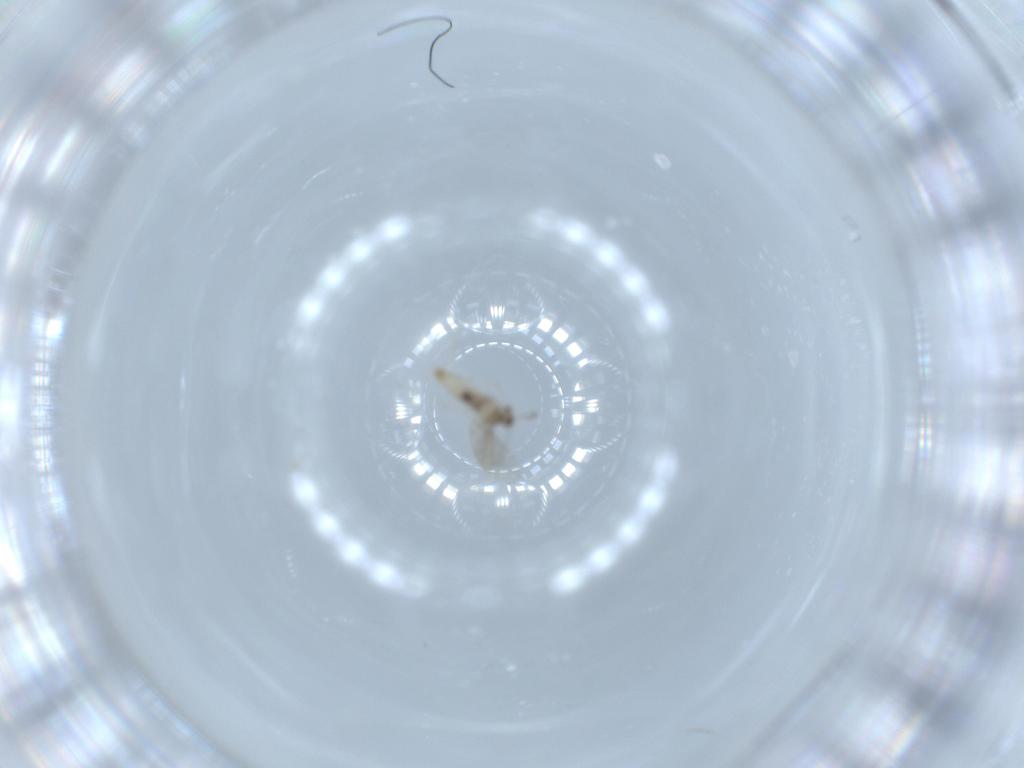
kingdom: Animalia
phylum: Arthropoda
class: Insecta
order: Diptera
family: Cecidomyiidae
